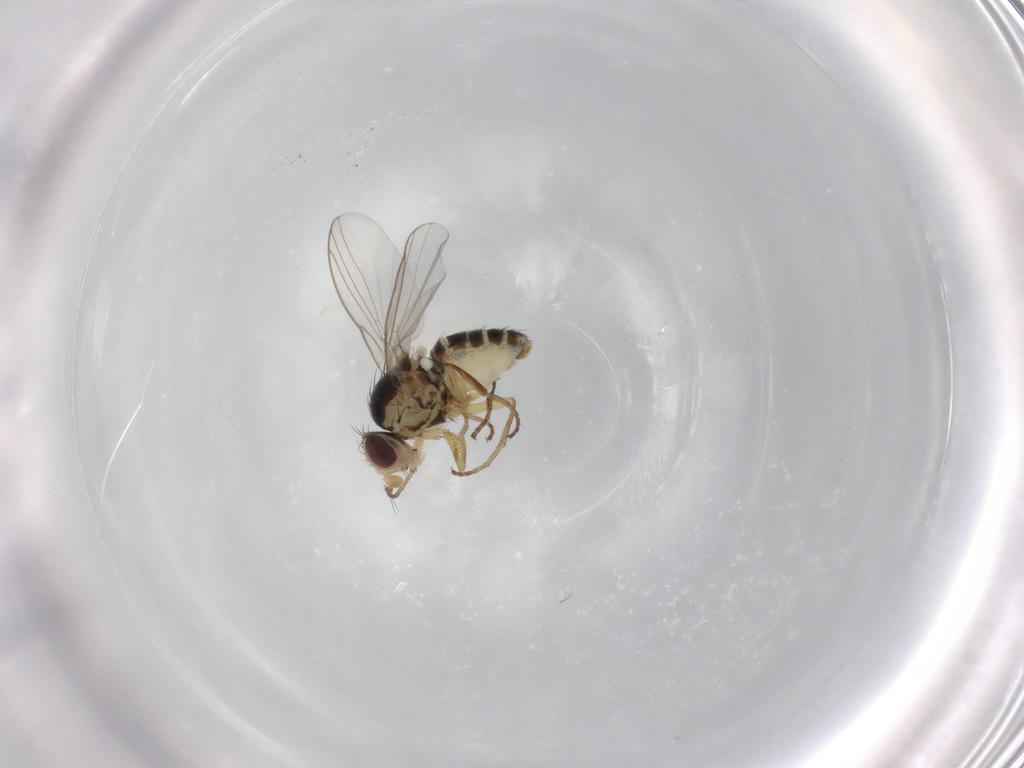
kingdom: Animalia
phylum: Arthropoda
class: Insecta
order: Diptera
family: Agromyzidae
